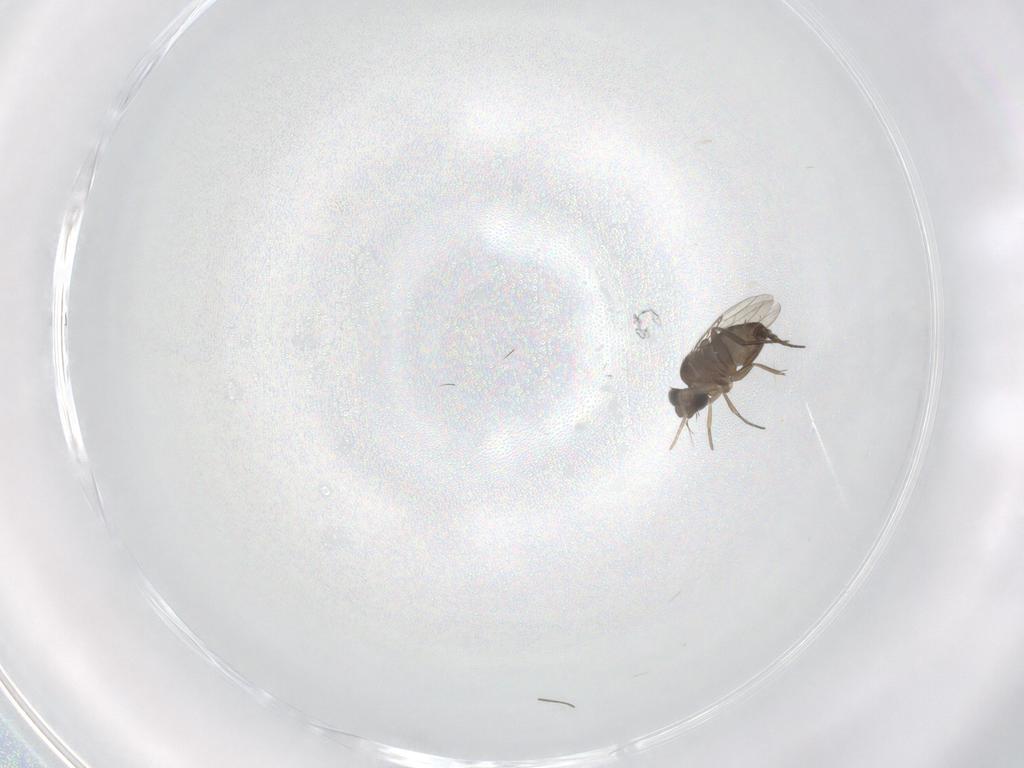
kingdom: Animalia
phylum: Arthropoda
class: Insecta
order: Diptera
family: Phoridae
